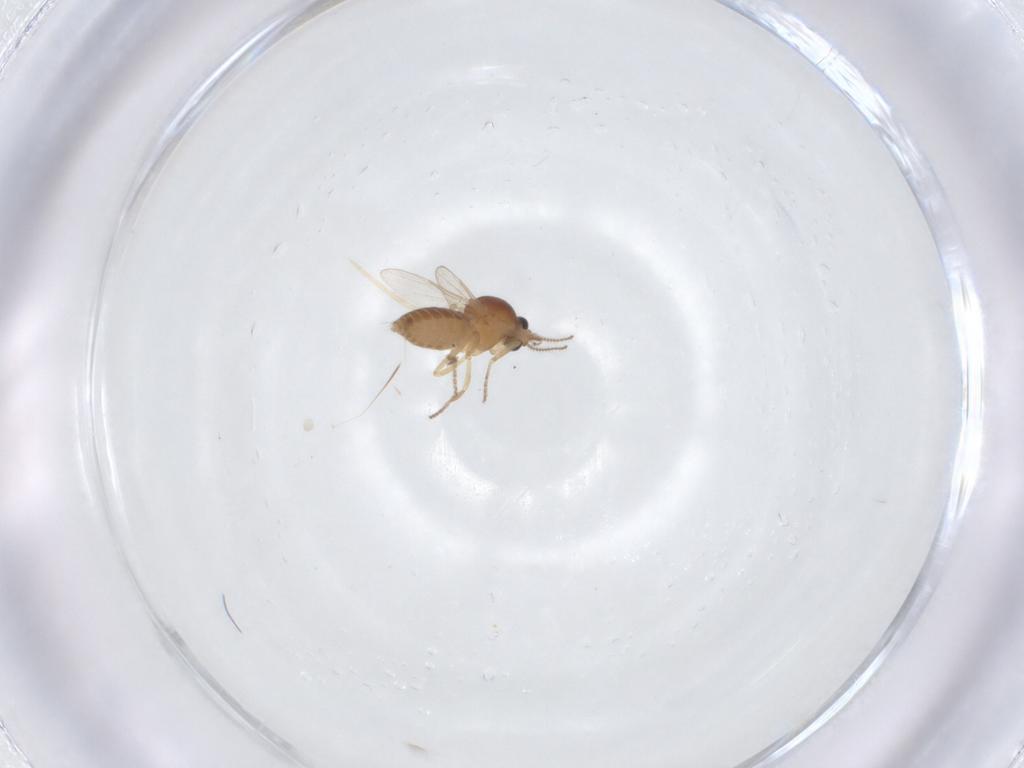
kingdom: Animalia
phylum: Arthropoda
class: Insecta
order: Diptera
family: Ceratopogonidae
